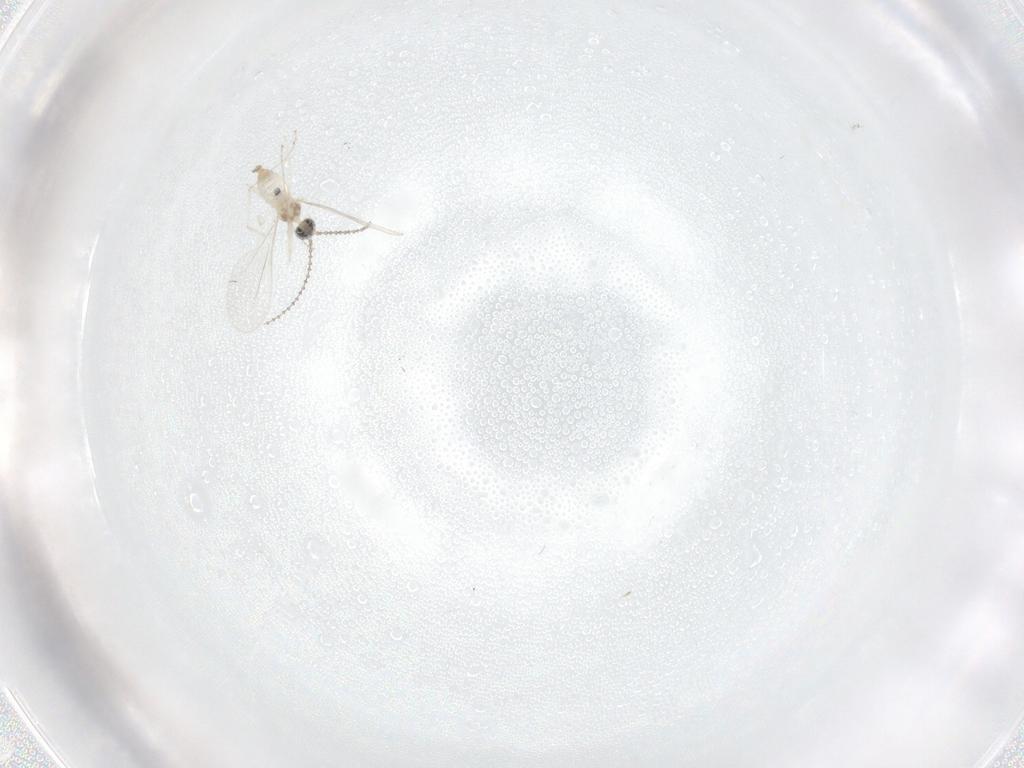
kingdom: Animalia
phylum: Arthropoda
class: Insecta
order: Diptera
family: Cecidomyiidae
